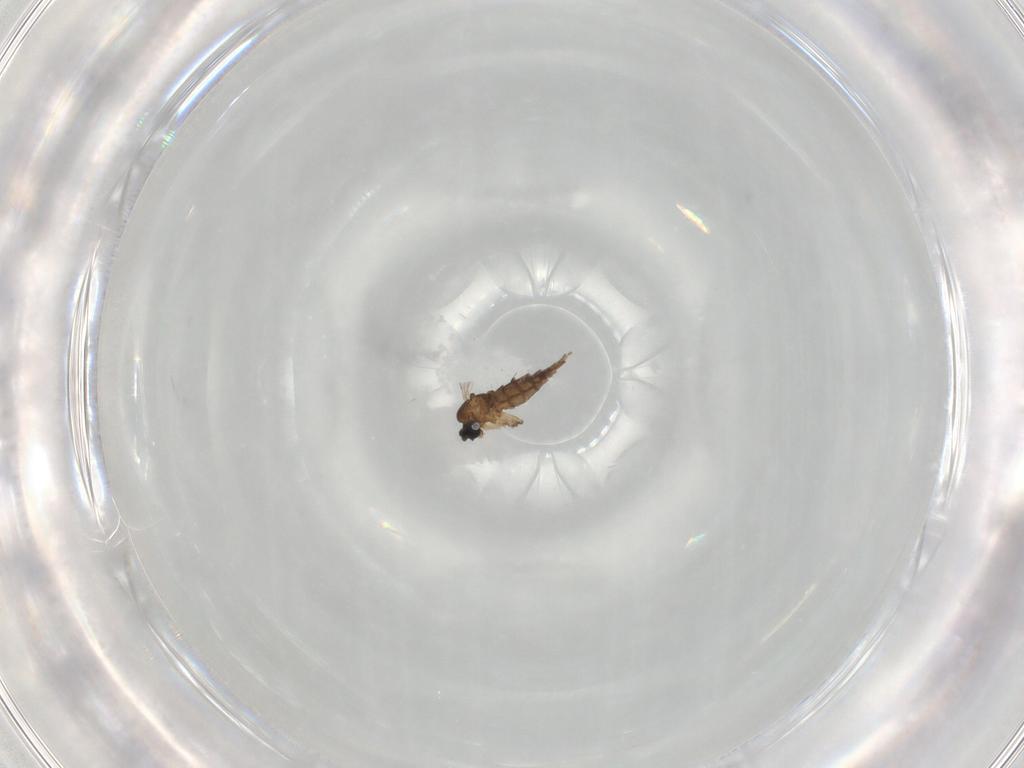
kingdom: Animalia
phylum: Arthropoda
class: Insecta
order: Diptera
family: Sciaridae
